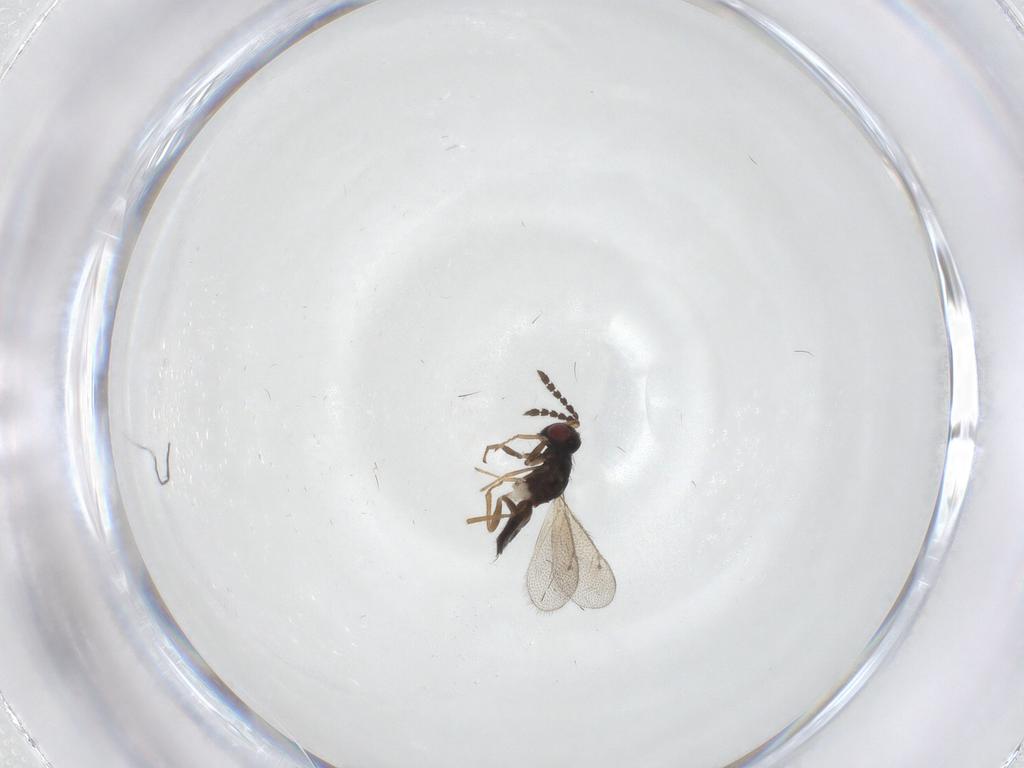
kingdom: Animalia
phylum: Arthropoda
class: Insecta
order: Hymenoptera
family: Eulophidae
